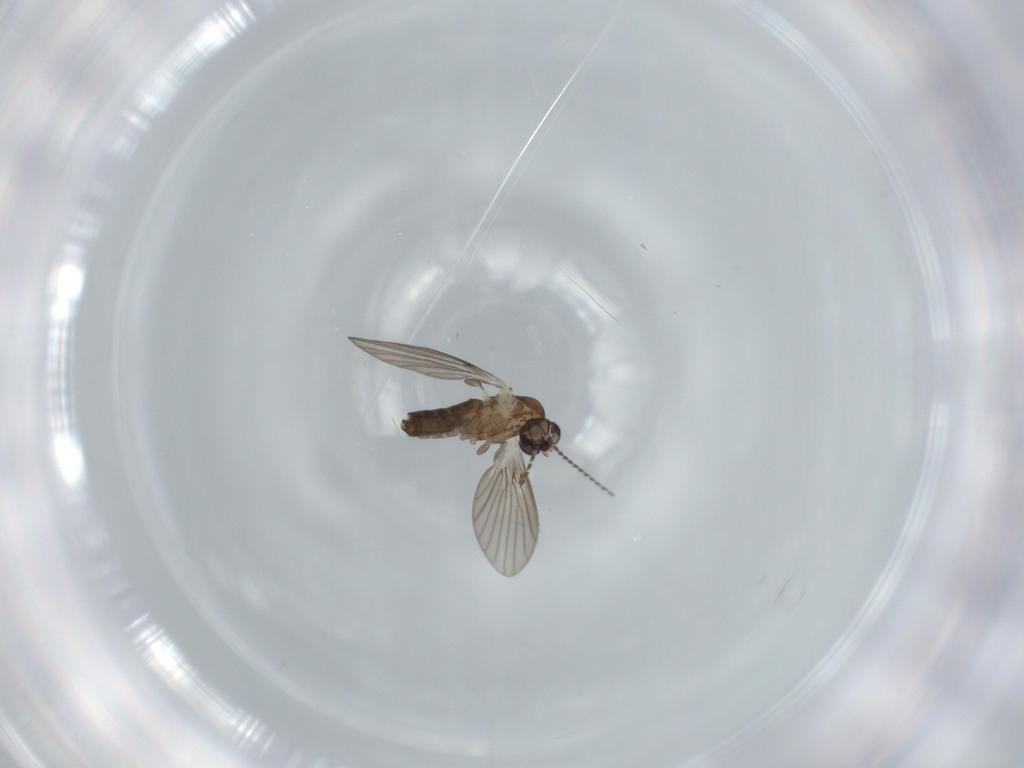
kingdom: Animalia
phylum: Arthropoda
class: Insecta
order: Diptera
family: Psychodidae
